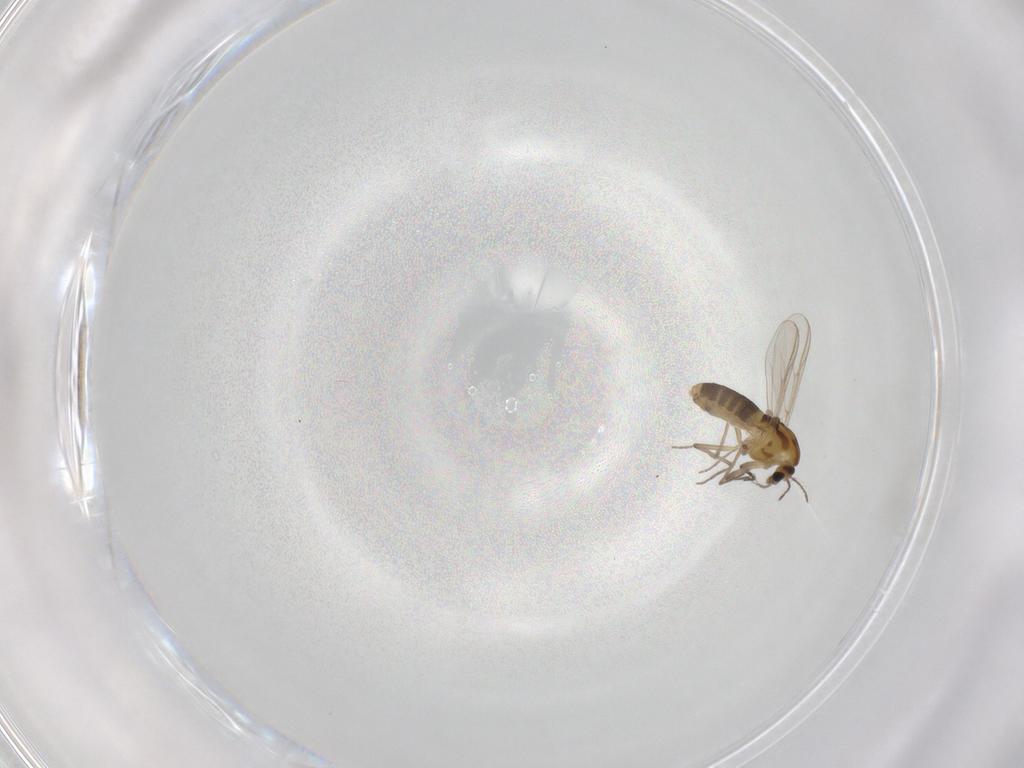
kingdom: Animalia
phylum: Arthropoda
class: Insecta
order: Diptera
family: Chironomidae
